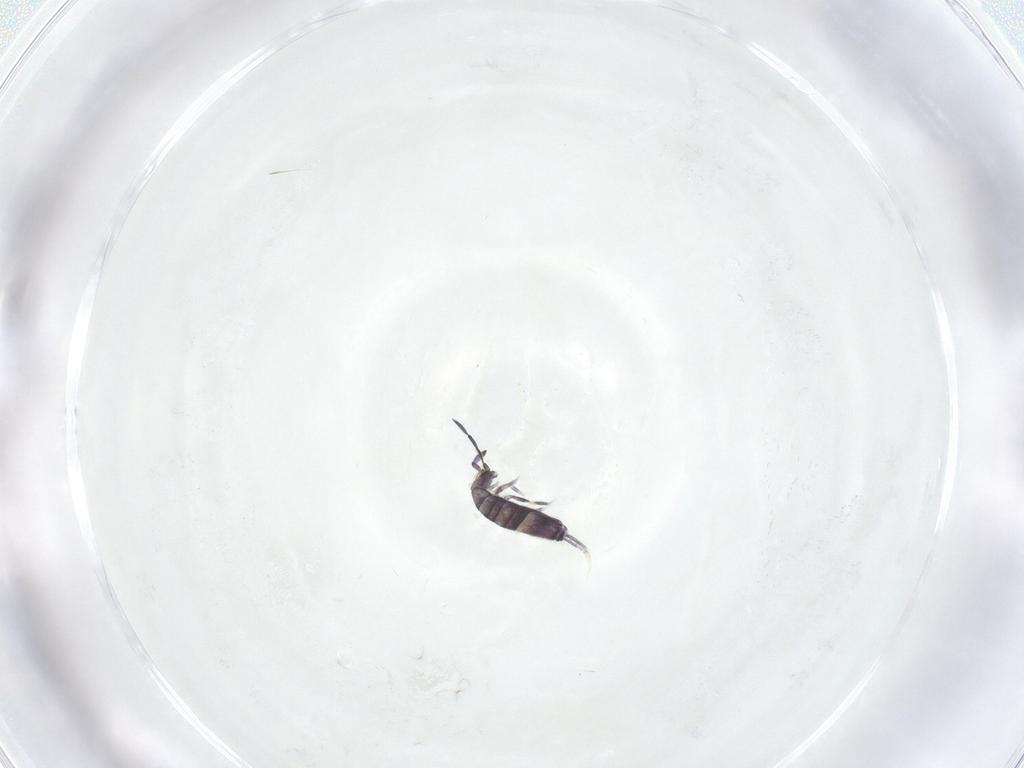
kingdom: Animalia
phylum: Arthropoda
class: Collembola
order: Entomobryomorpha
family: Entomobryidae
